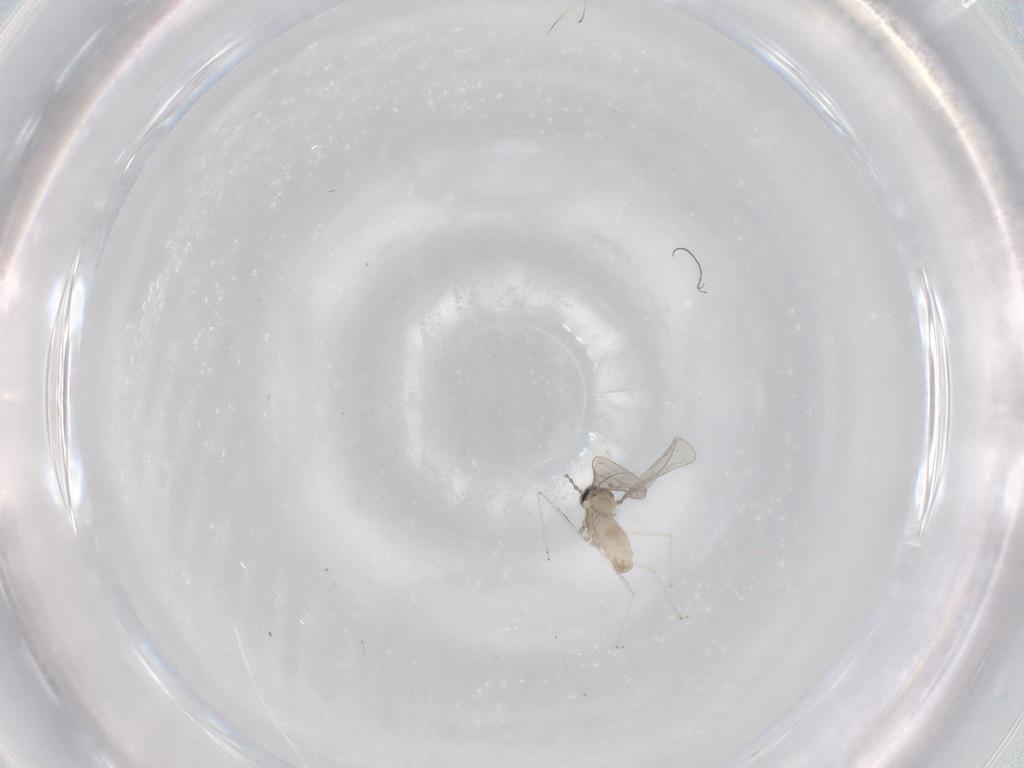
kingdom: Animalia
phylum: Arthropoda
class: Insecta
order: Diptera
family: Cecidomyiidae
